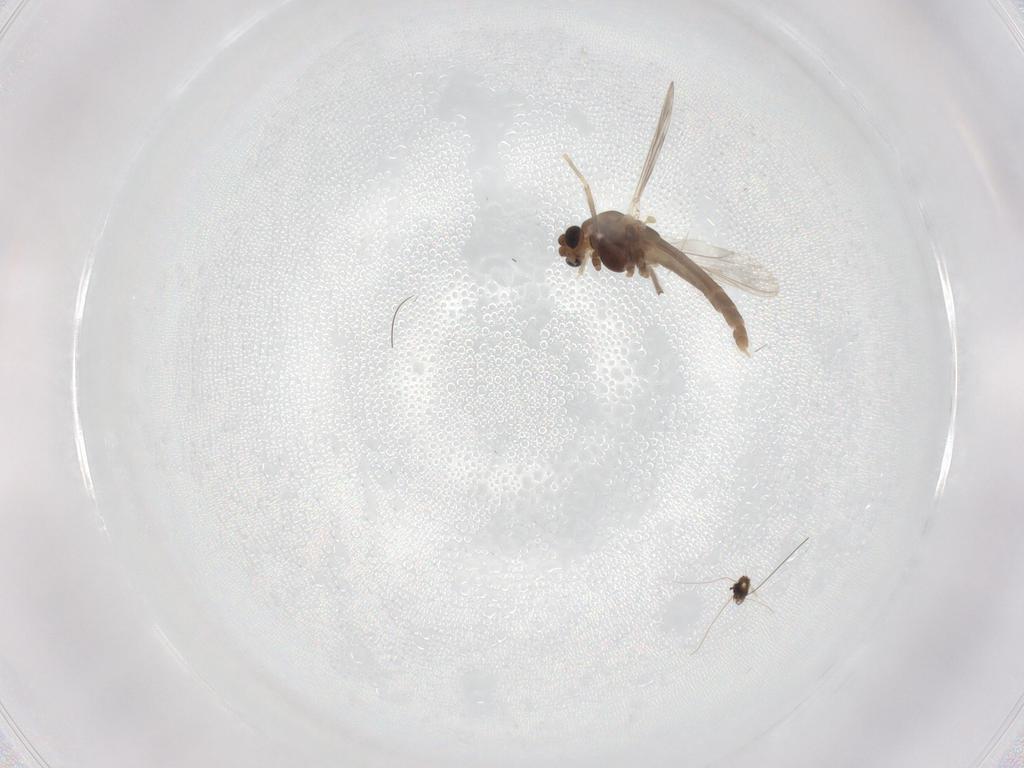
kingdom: Animalia
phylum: Arthropoda
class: Insecta
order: Diptera
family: Chironomidae
